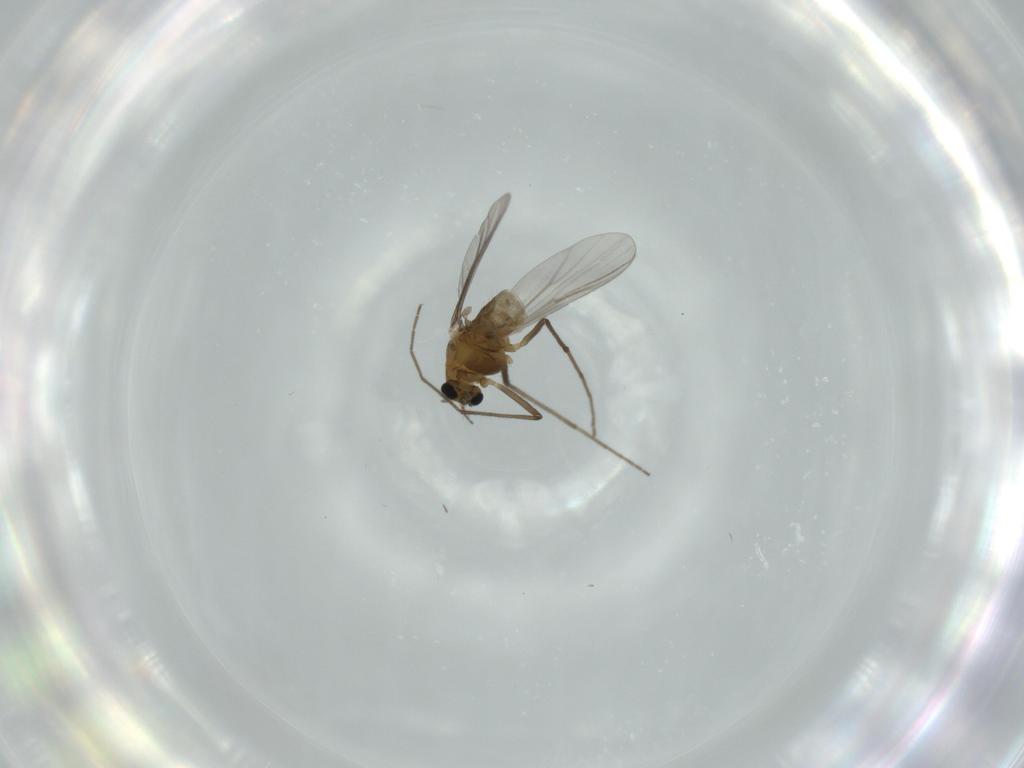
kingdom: Animalia
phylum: Arthropoda
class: Insecta
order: Diptera
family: Chironomidae
